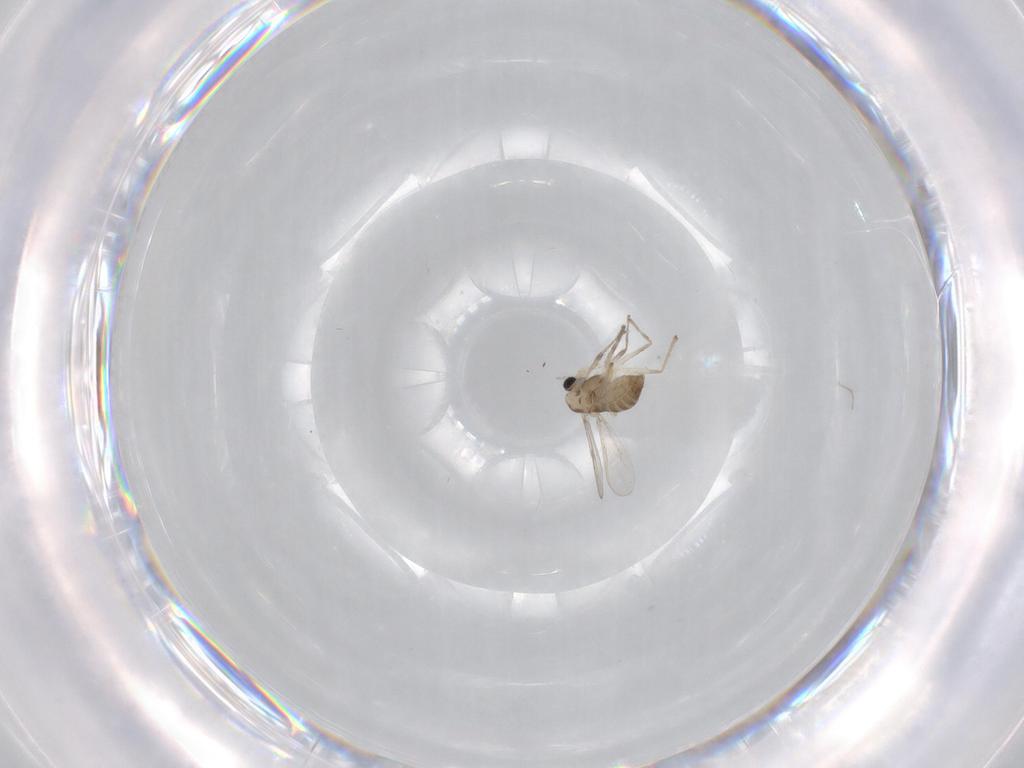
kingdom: Animalia
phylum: Arthropoda
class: Insecta
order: Diptera
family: Chironomidae
